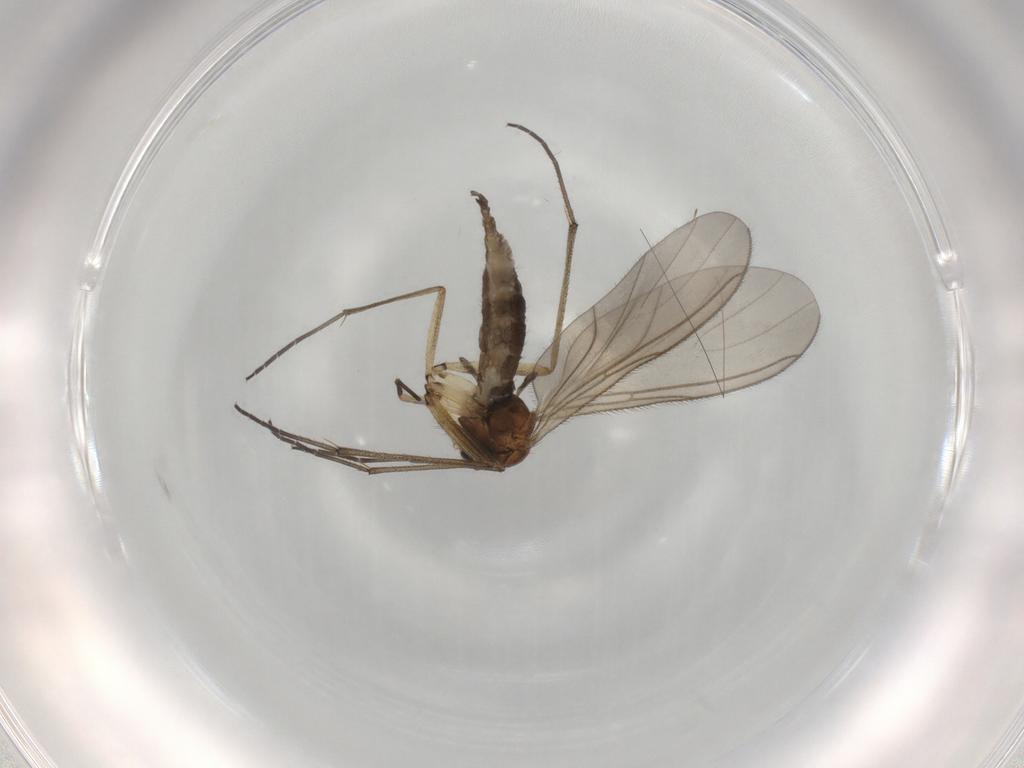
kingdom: Animalia
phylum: Arthropoda
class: Insecta
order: Diptera
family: Sciaridae
